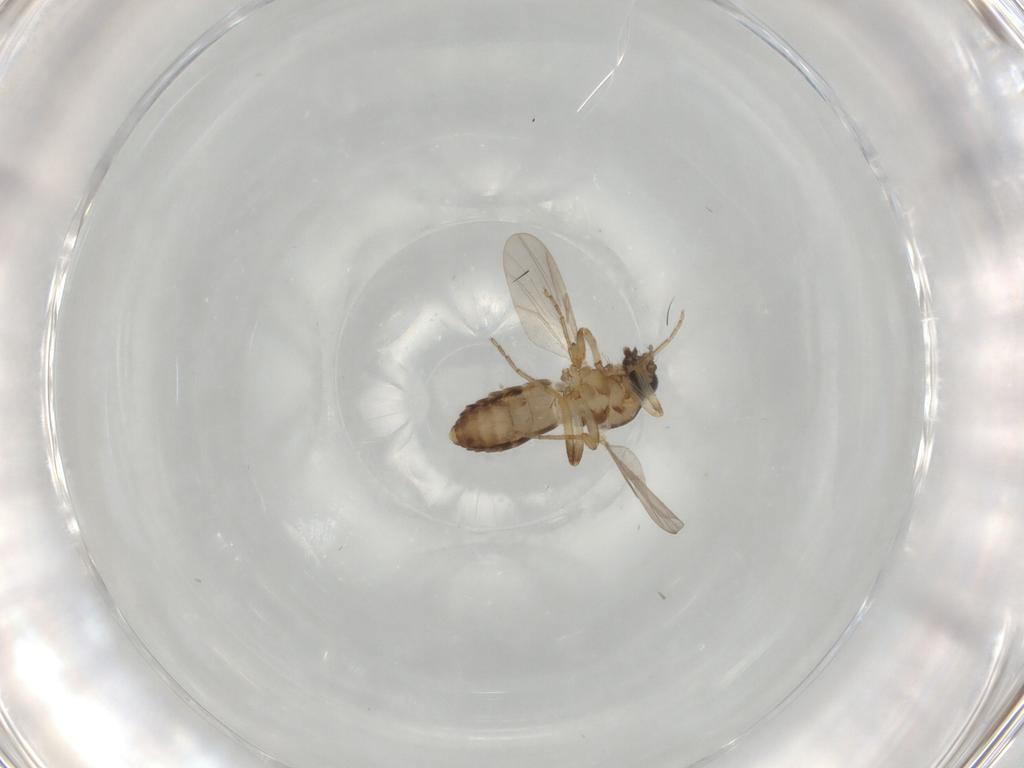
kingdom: Animalia
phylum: Arthropoda
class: Insecta
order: Diptera
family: Ceratopogonidae
